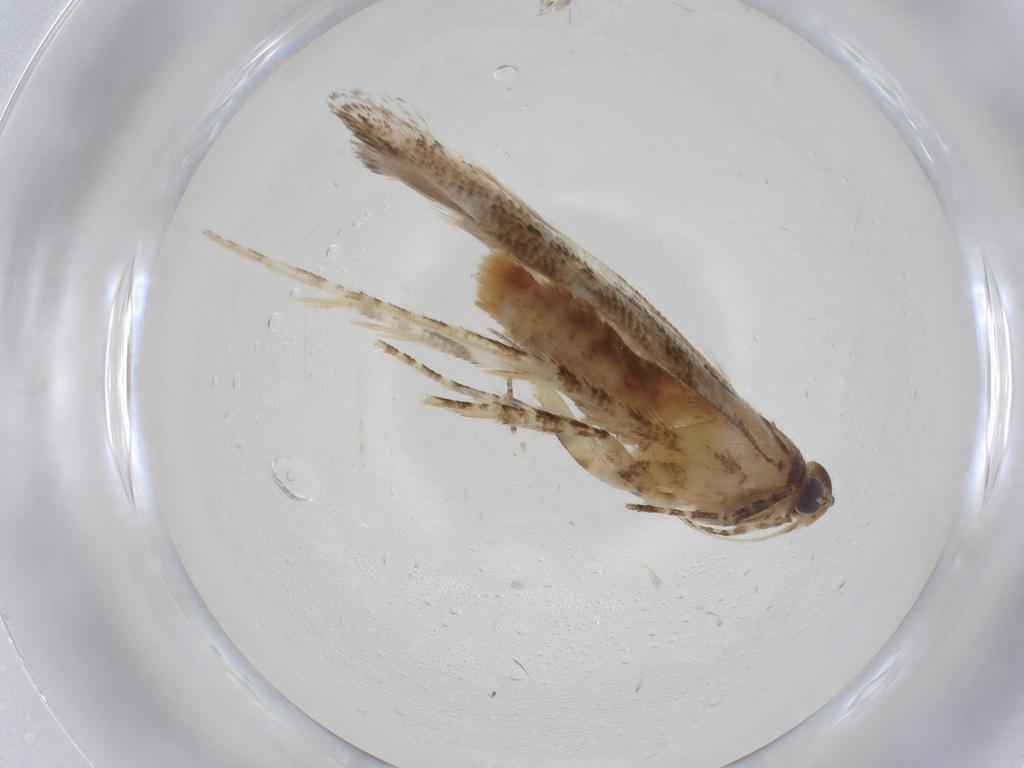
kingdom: Animalia
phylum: Arthropoda
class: Insecta
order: Lepidoptera
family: Gelechiidae
